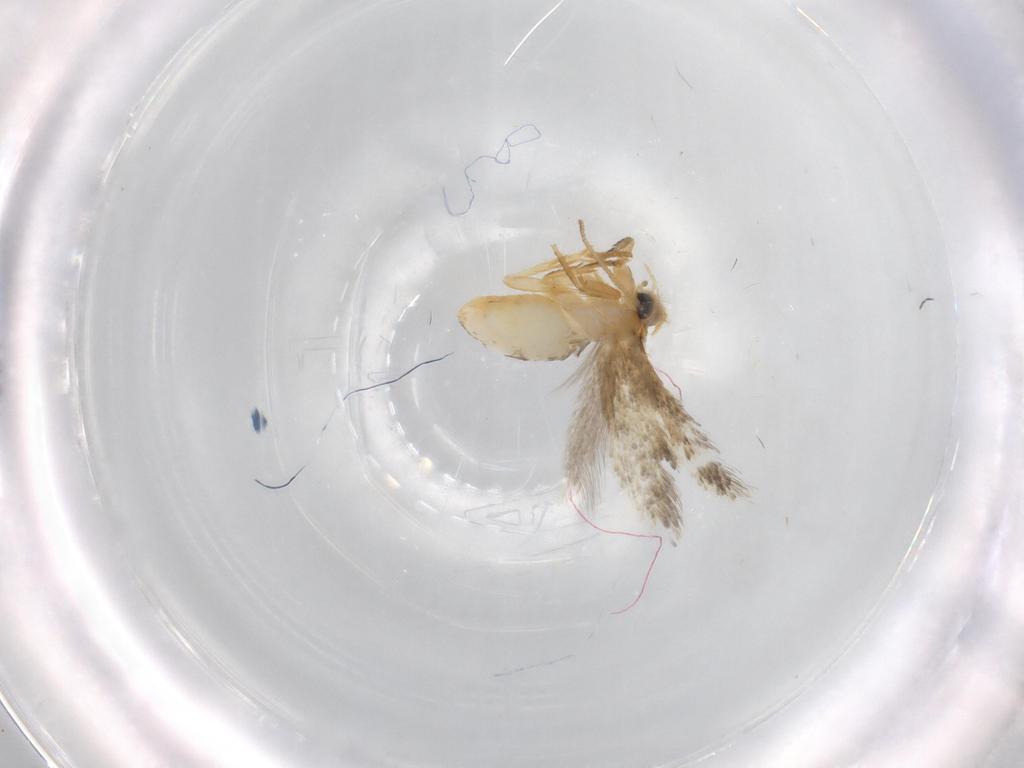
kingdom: Animalia
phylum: Arthropoda
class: Insecta
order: Lepidoptera
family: Nepticulidae
